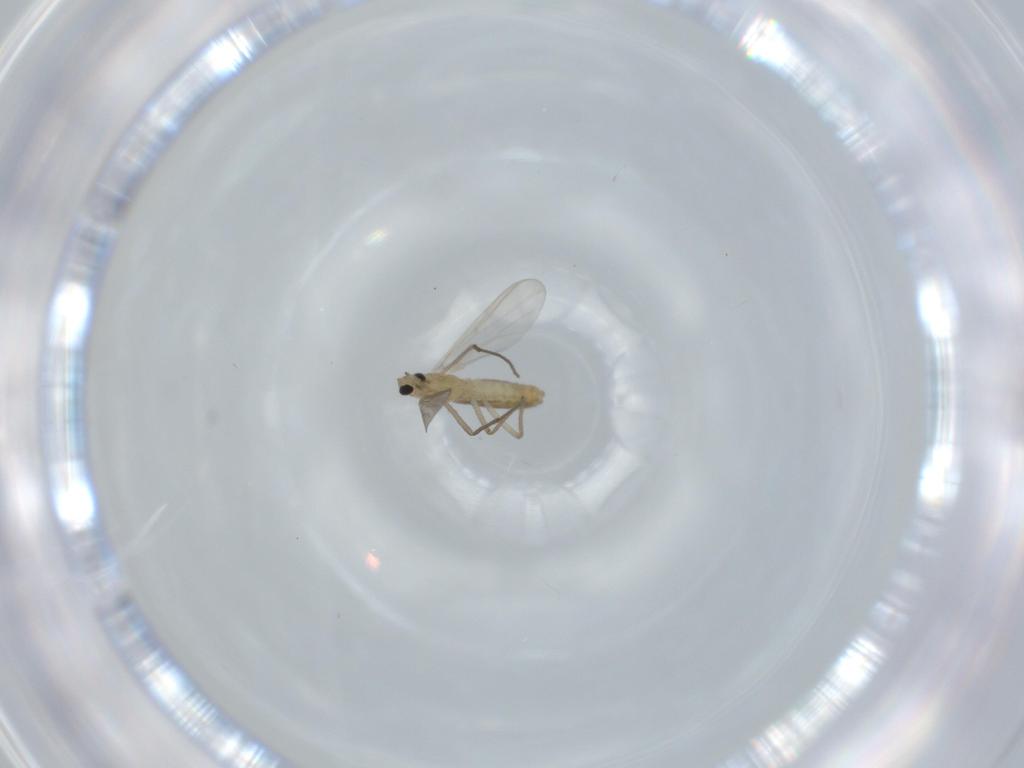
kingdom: Animalia
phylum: Arthropoda
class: Insecta
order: Diptera
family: Chironomidae
